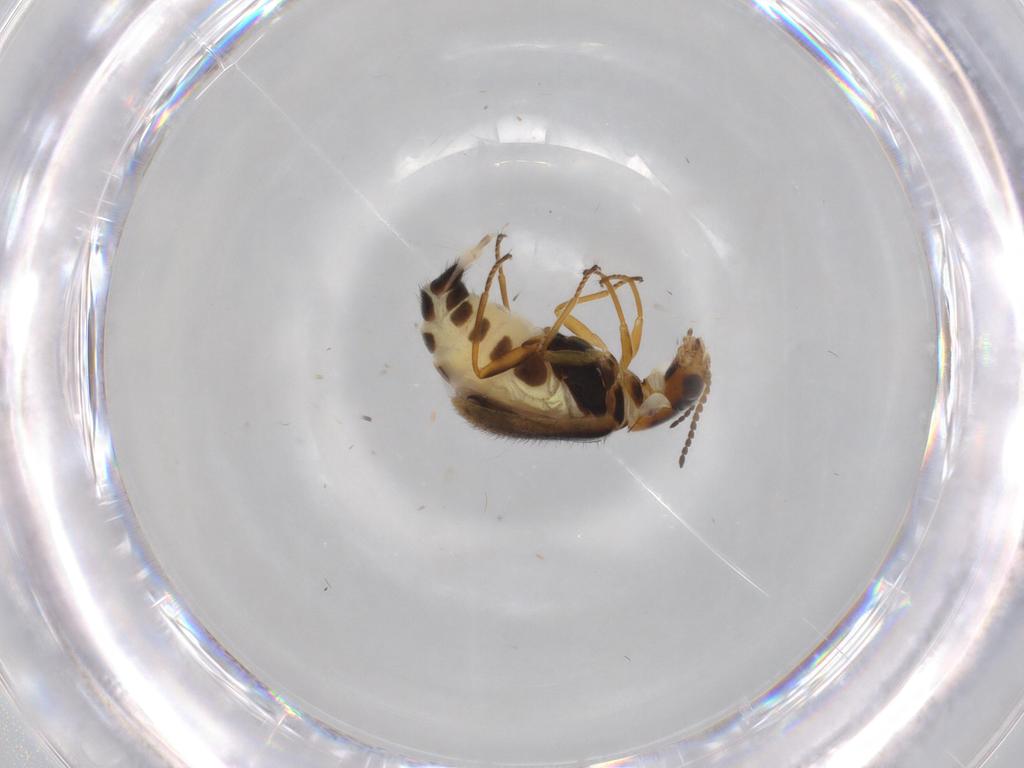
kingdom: Animalia
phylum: Arthropoda
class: Insecta
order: Coleoptera
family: Melyridae
